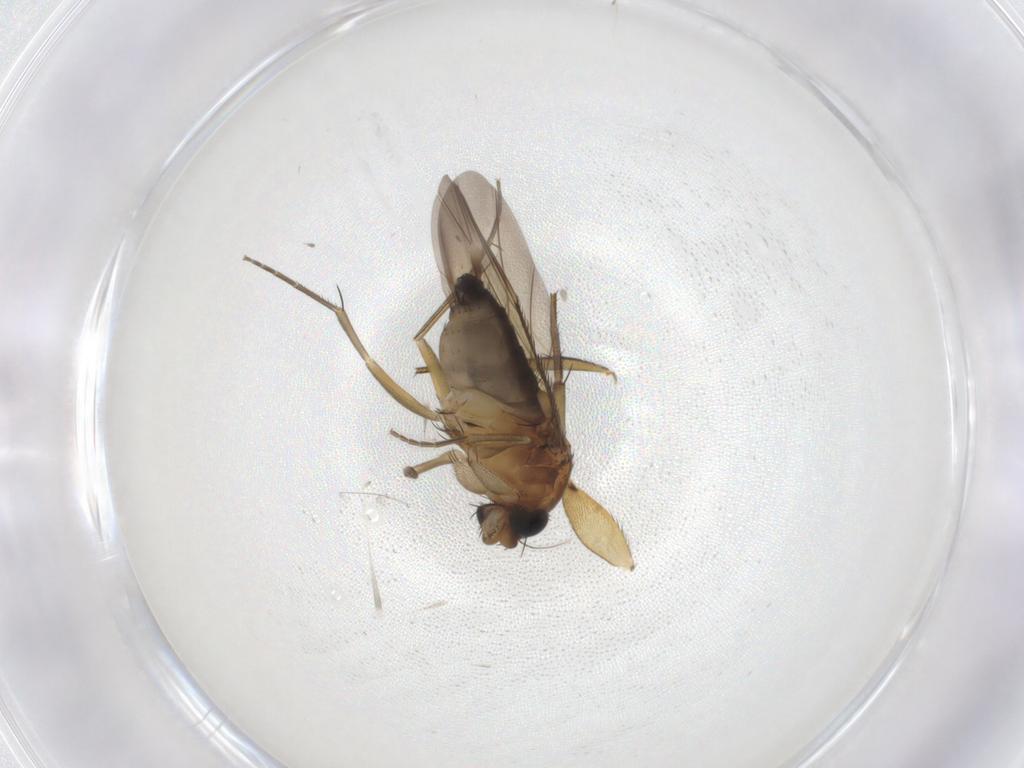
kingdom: Animalia
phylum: Arthropoda
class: Insecta
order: Diptera
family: Phoridae
